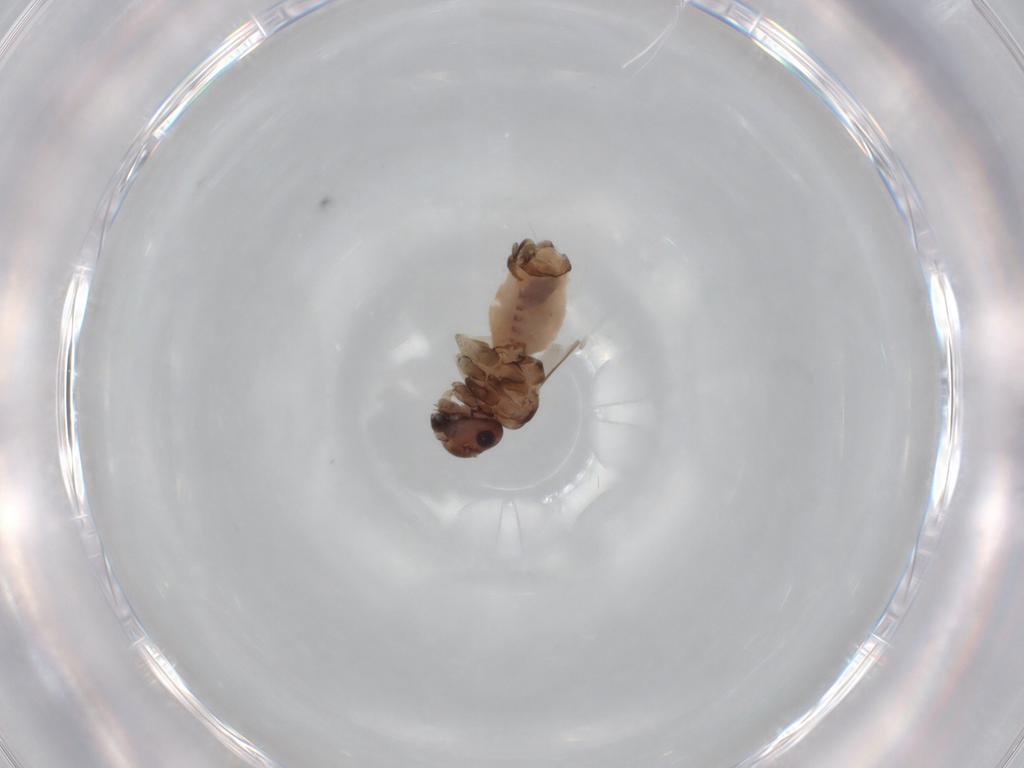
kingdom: Animalia
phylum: Arthropoda
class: Insecta
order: Psocodea
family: Peripsocidae
